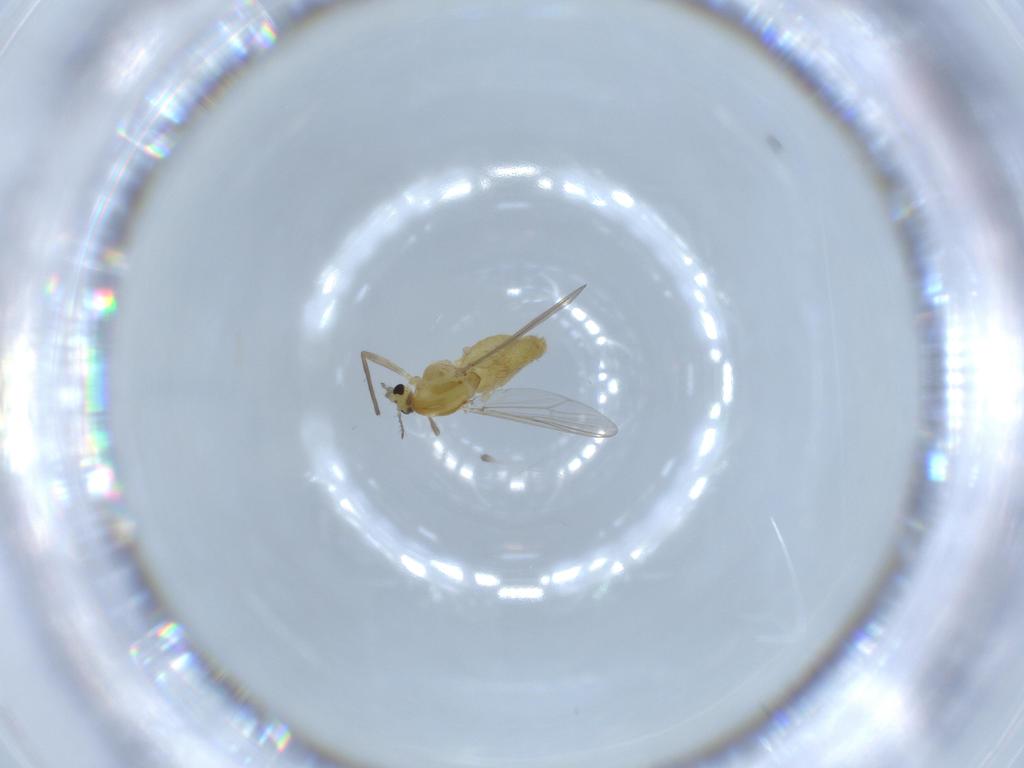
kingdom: Animalia
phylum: Arthropoda
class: Insecta
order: Diptera
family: Chironomidae
